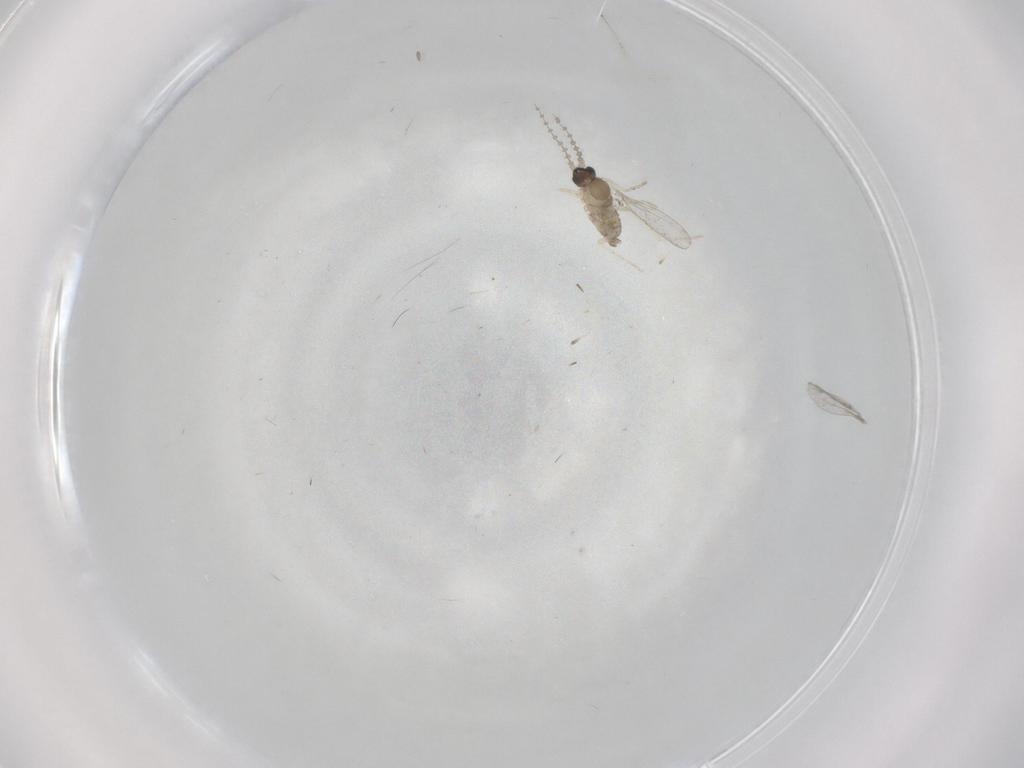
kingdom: Animalia
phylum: Arthropoda
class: Insecta
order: Diptera
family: Cecidomyiidae
